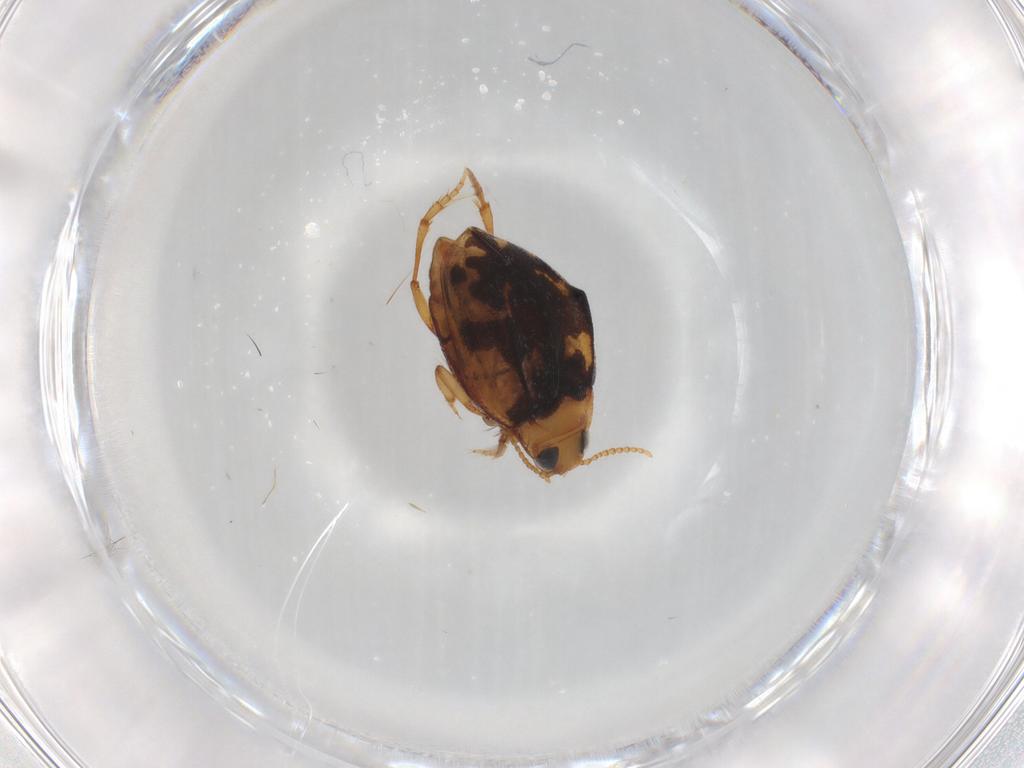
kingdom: Animalia
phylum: Arthropoda
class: Insecta
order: Coleoptera
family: Dytiscidae
